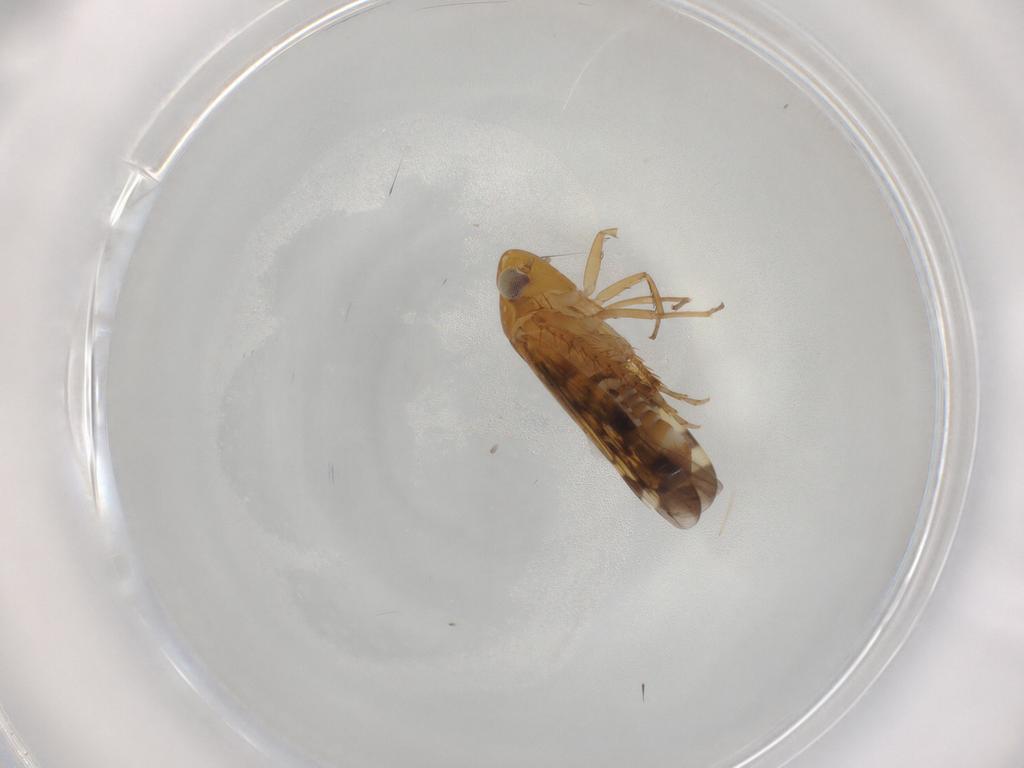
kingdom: Animalia
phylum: Arthropoda
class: Insecta
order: Hemiptera
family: Cicadellidae
